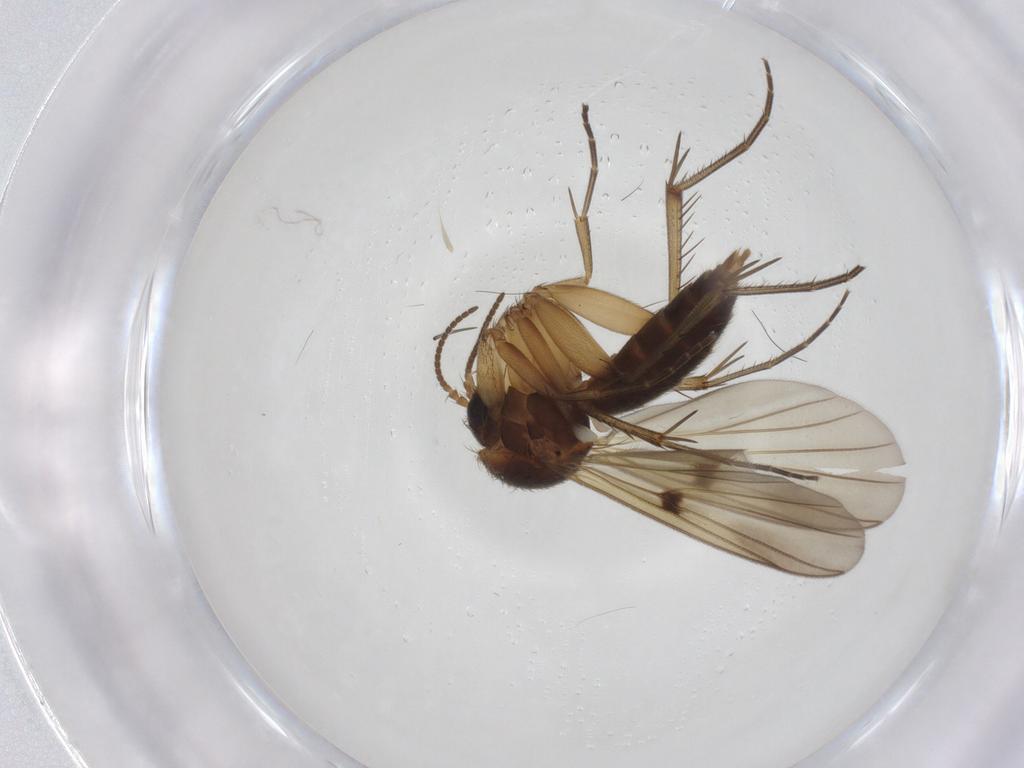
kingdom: Animalia
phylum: Arthropoda
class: Insecta
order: Diptera
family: Mycetophilidae
